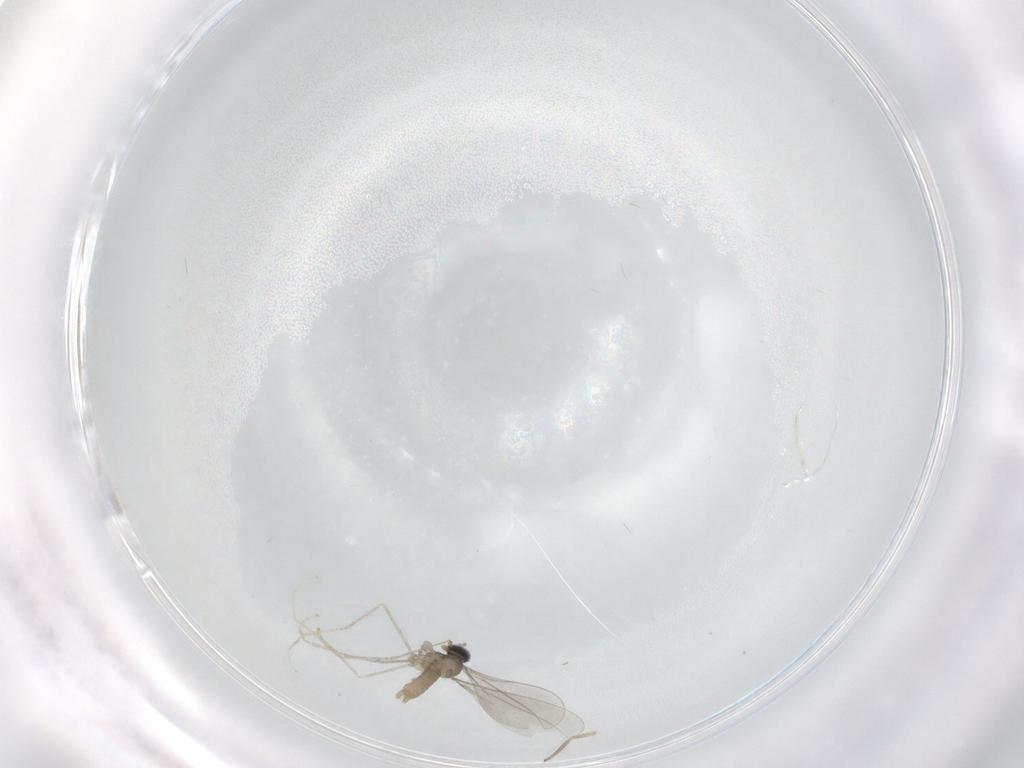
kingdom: Animalia
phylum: Arthropoda
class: Insecta
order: Diptera
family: Cecidomyiidae
